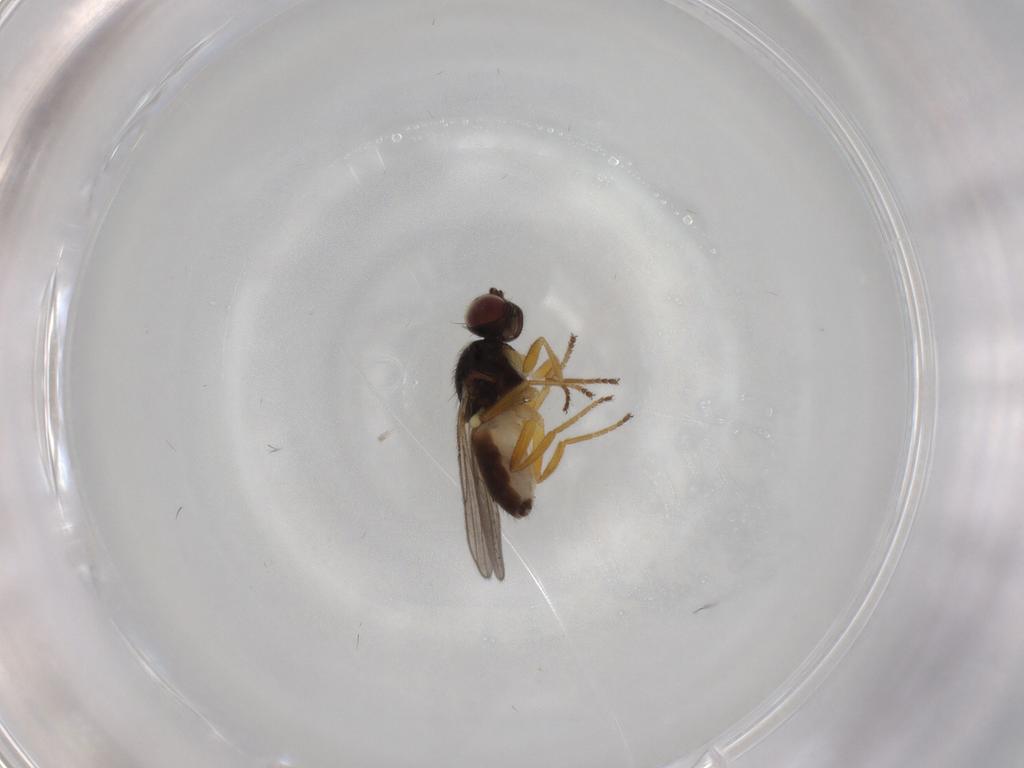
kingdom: Animalia
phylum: Arthropoda
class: Insecta
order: Diptera
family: Chloropidae
